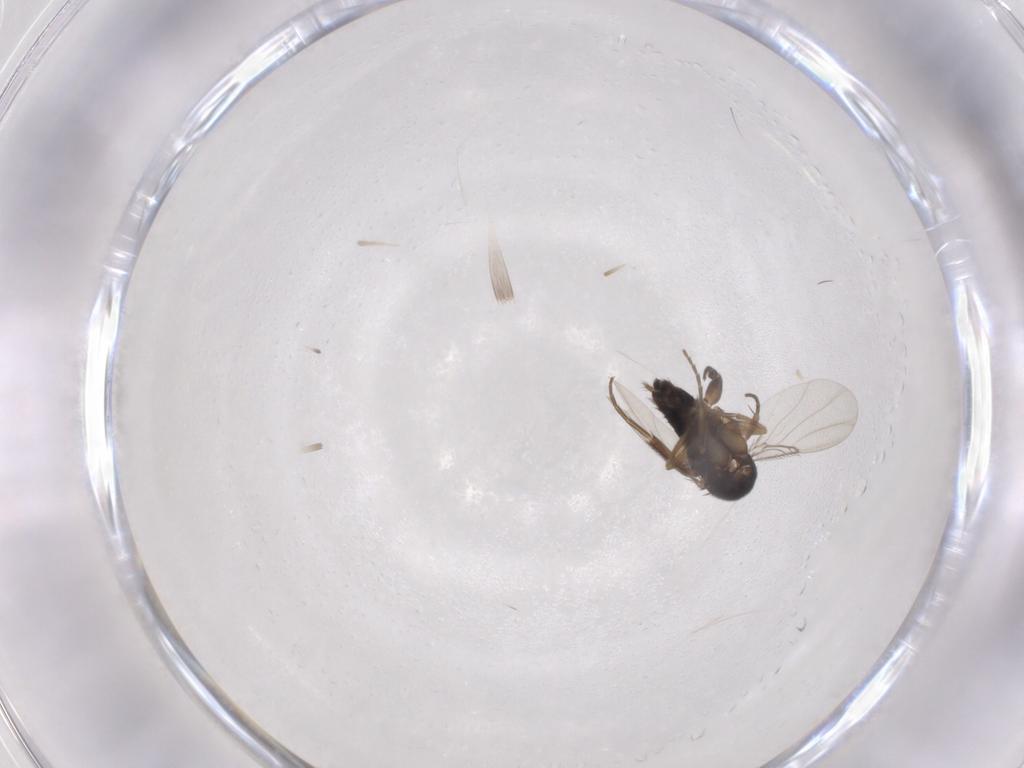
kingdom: Animalia
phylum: Arthropoda
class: Insecta
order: Diptera
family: Phoridae
